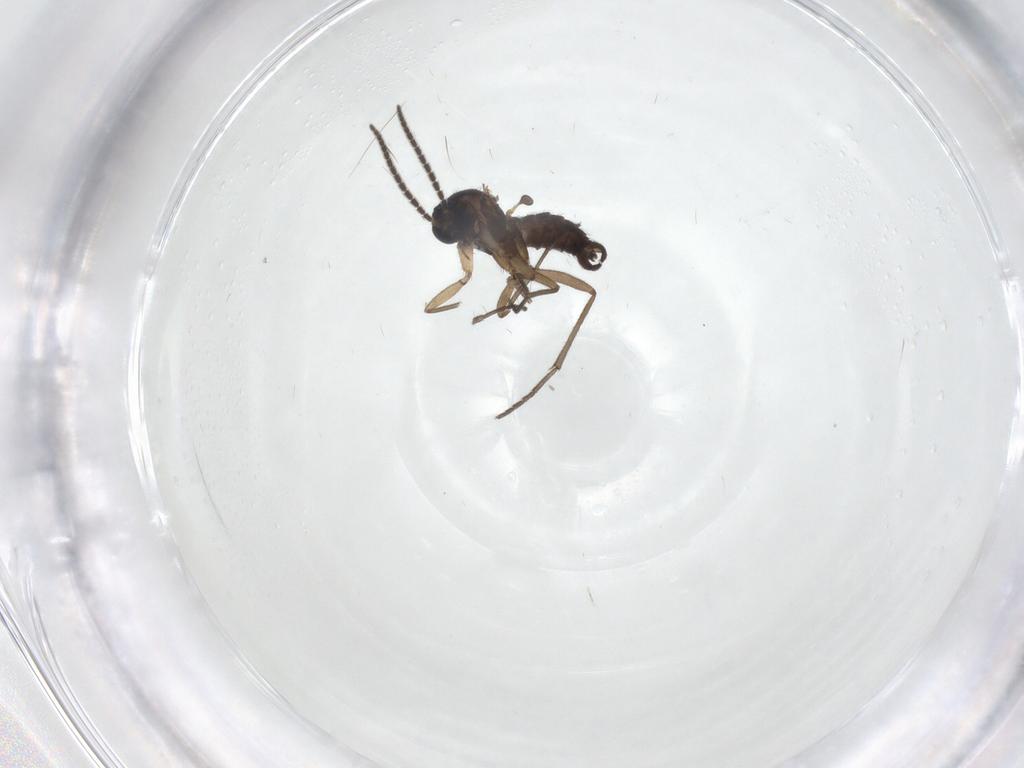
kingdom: Animalia
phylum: Arthropoda
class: Insecta
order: Diptera
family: Sciaridae
